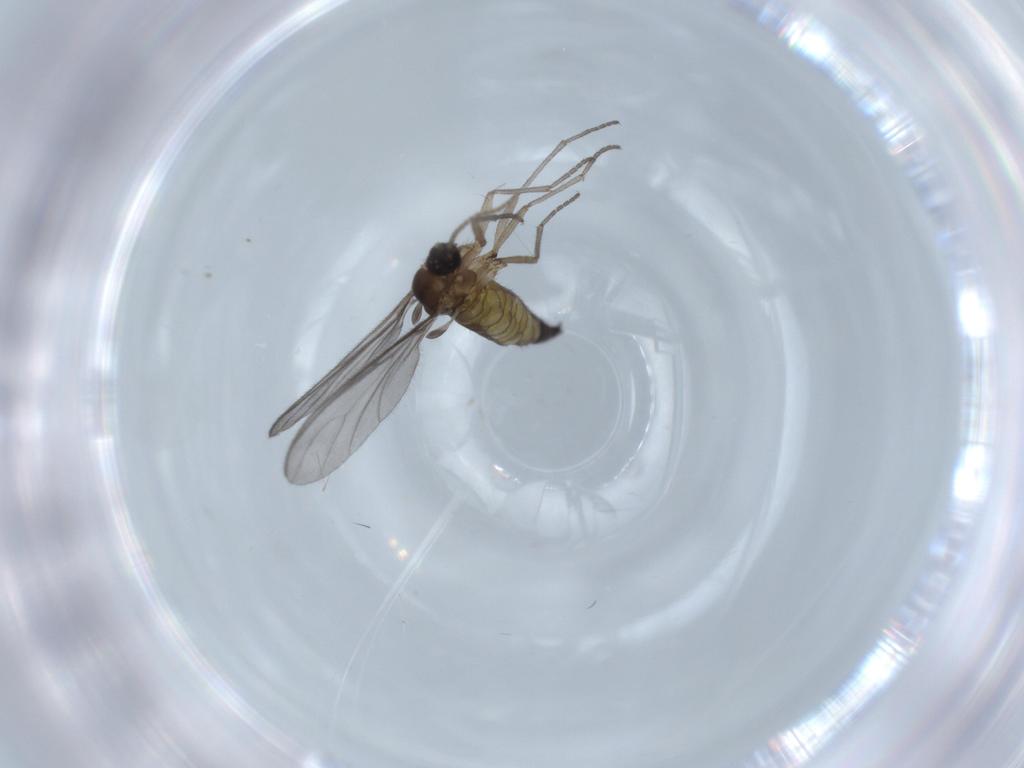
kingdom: Animalia
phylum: Arthropoda
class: Insecta
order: Diptera
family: Sciaridae
